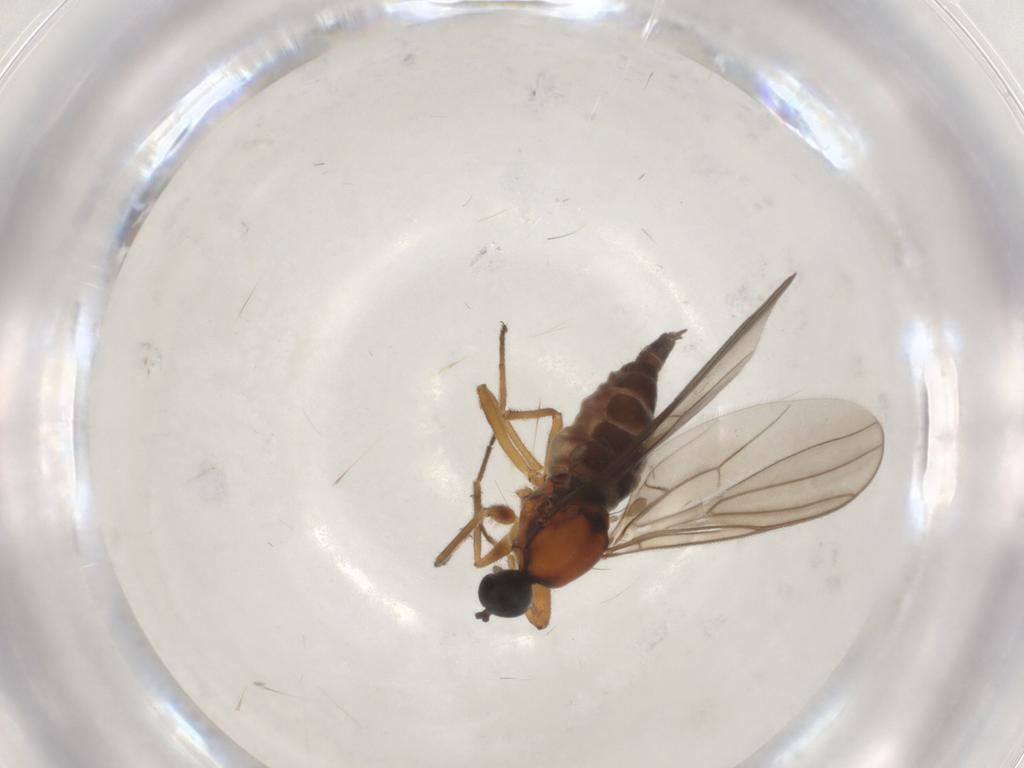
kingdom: Animalia
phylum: Arthropoda
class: Insecta
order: Diptera
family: Hybotidae
